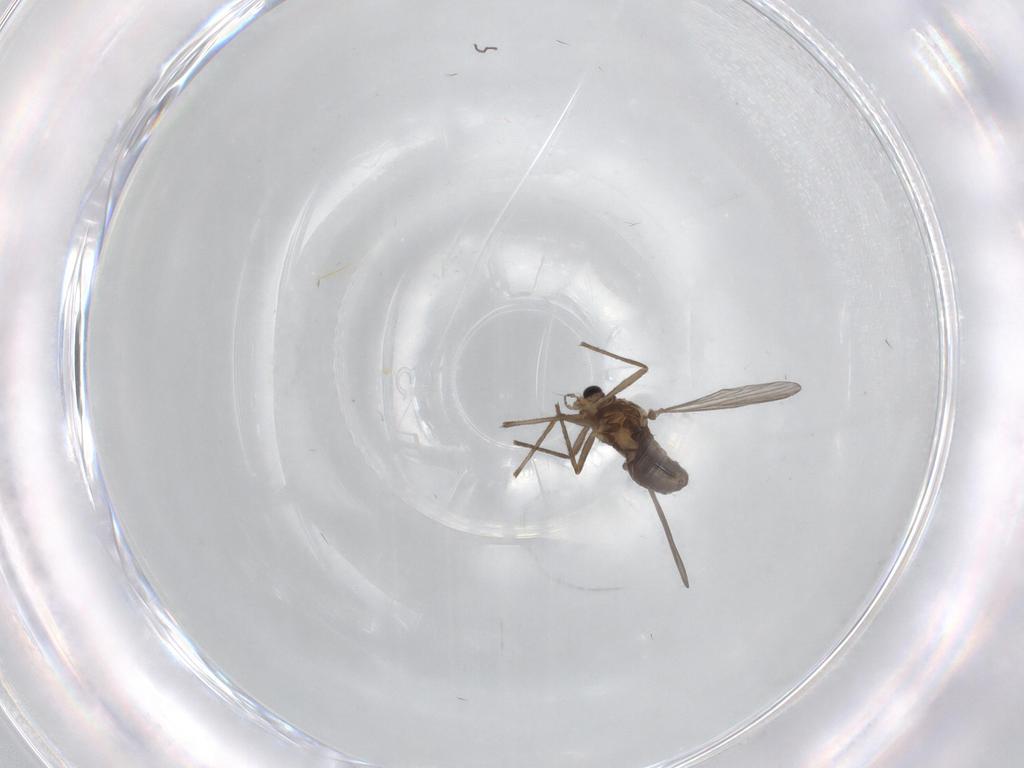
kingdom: Animalia
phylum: Arthropoda
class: Insecta
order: Diptera
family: Chironomidae
